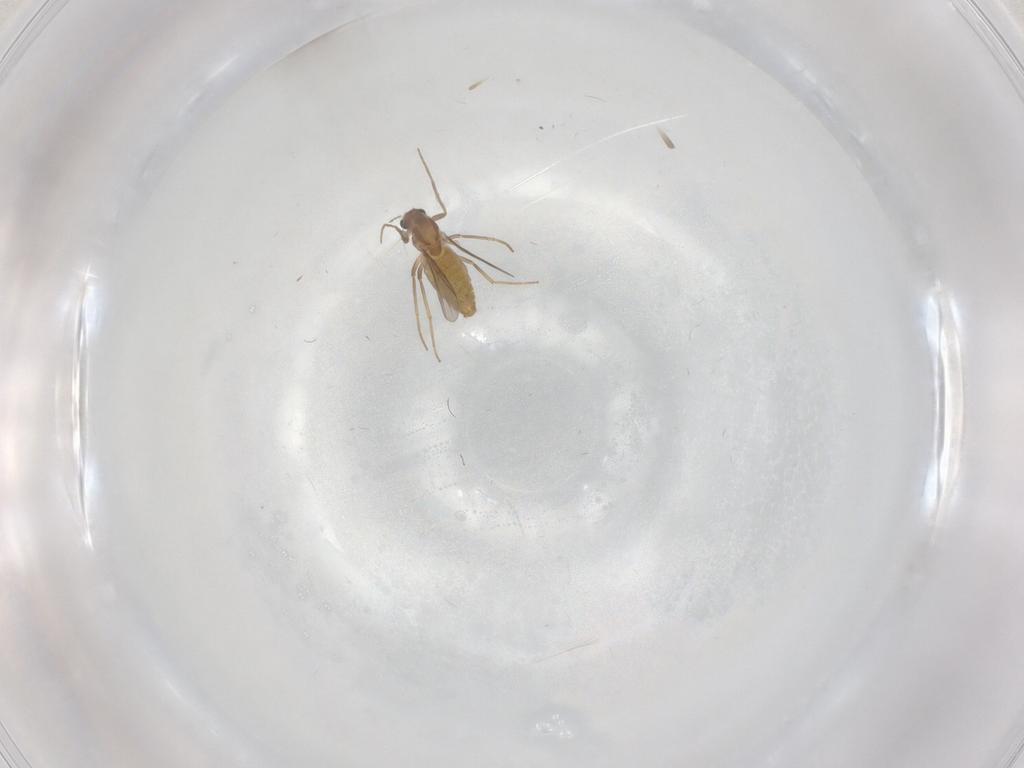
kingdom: Animalia
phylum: Arthropoda
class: Insecta
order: Diptera
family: Chironomidae
